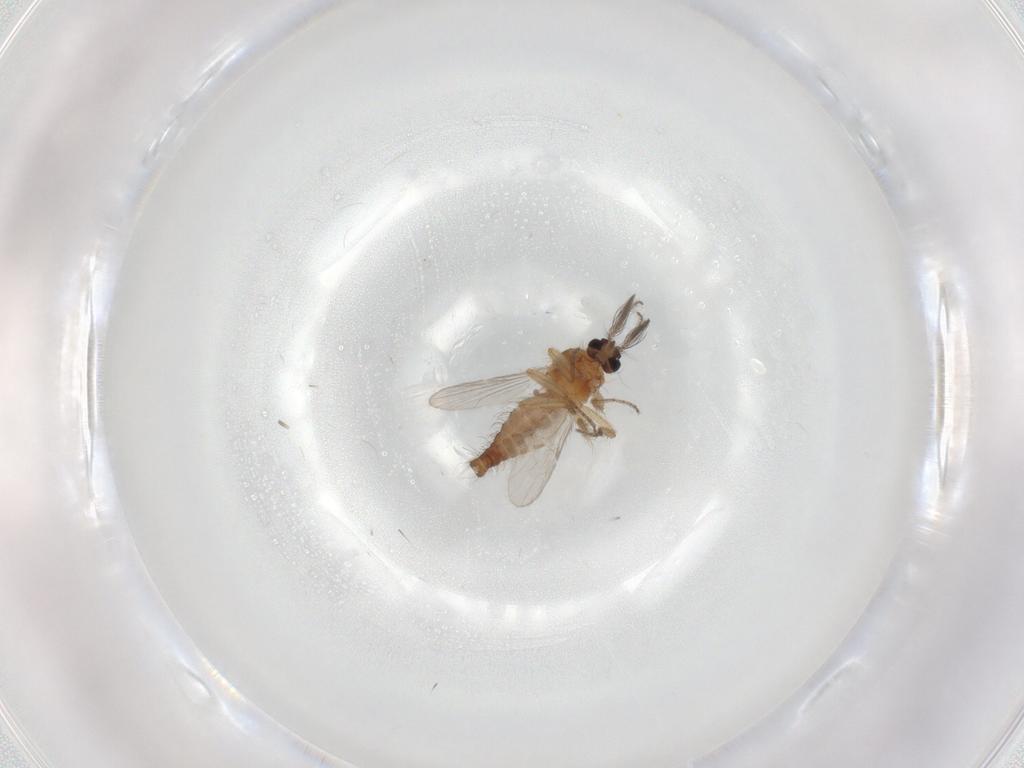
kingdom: Animalia
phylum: Arthropoda
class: Insecta
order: Diptera
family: Ceratopogonidae
